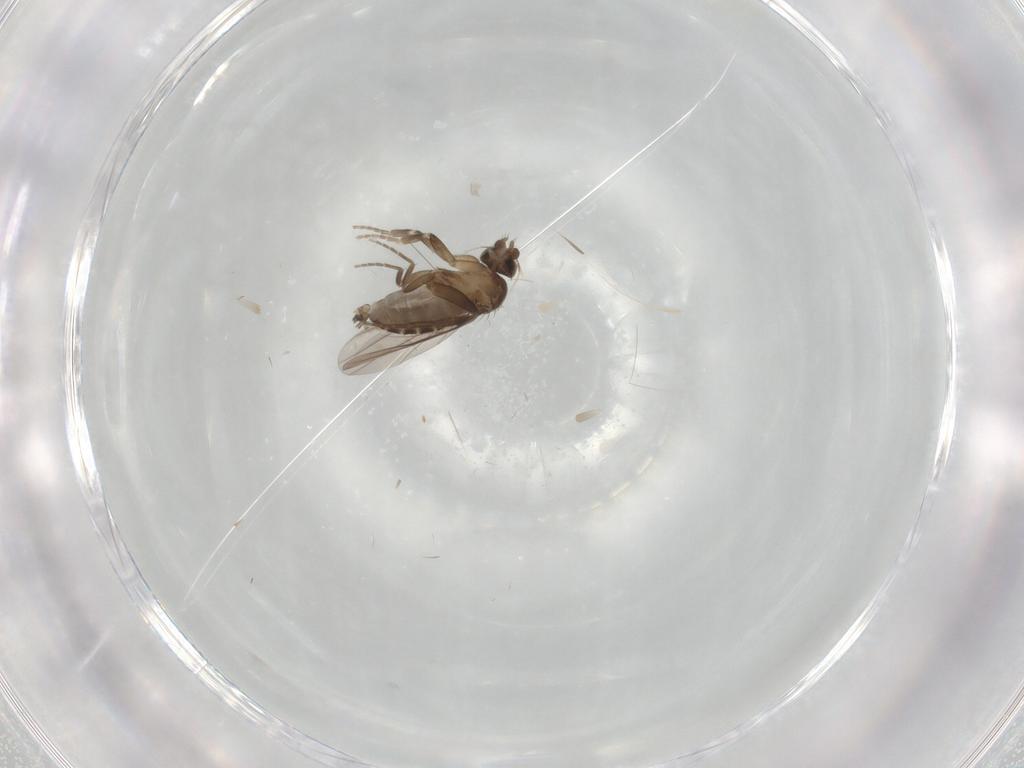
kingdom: Animalia
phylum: Arthropoda
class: Insecta
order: Diptera
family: Phoridae
